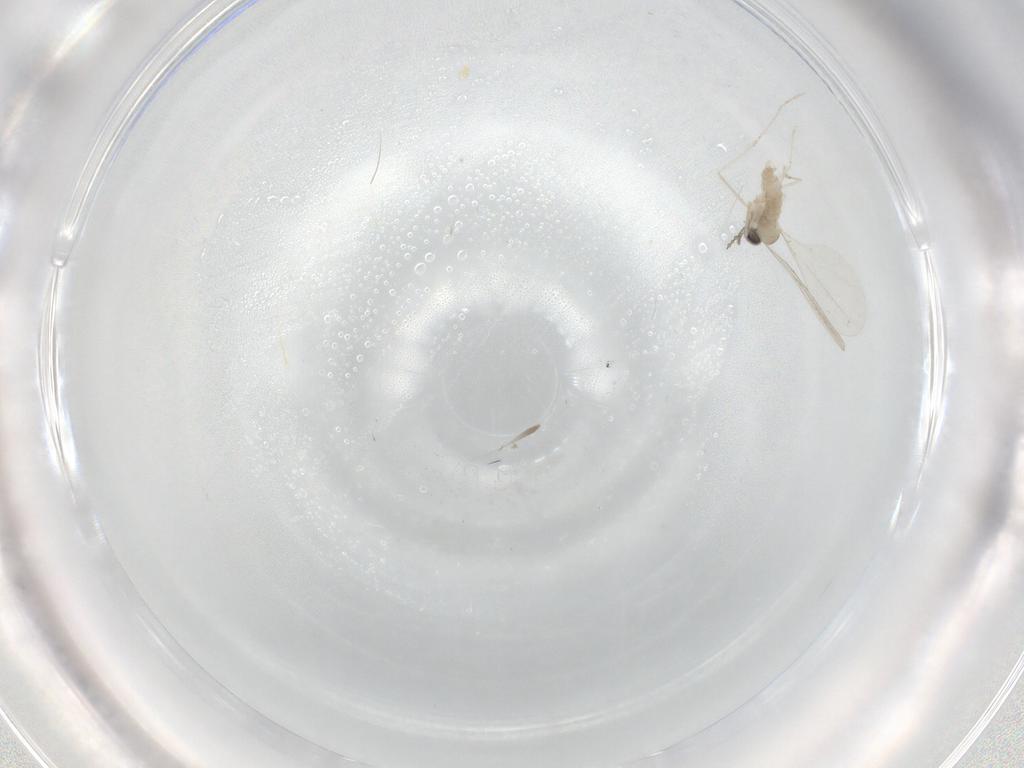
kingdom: Animalia
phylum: Arthropoda
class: Insecta
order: Diptera
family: Cecidomyiidae
